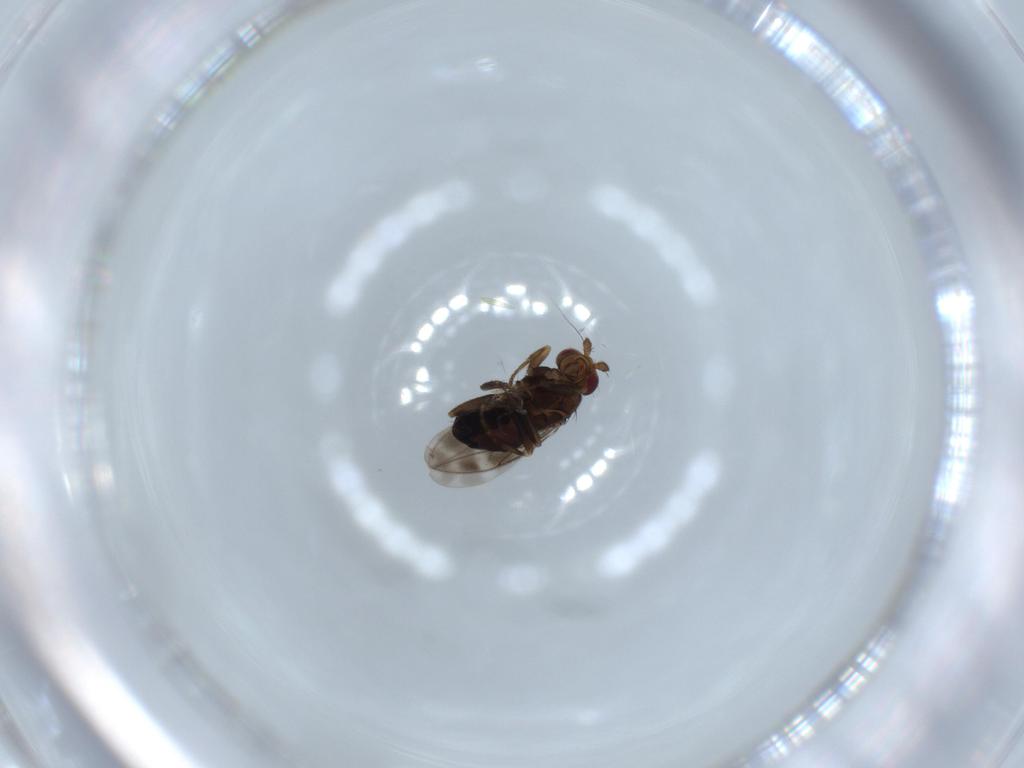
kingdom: Animalia
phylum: Arthropoda
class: Insecta
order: Diptera
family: Sphaeroceridae
